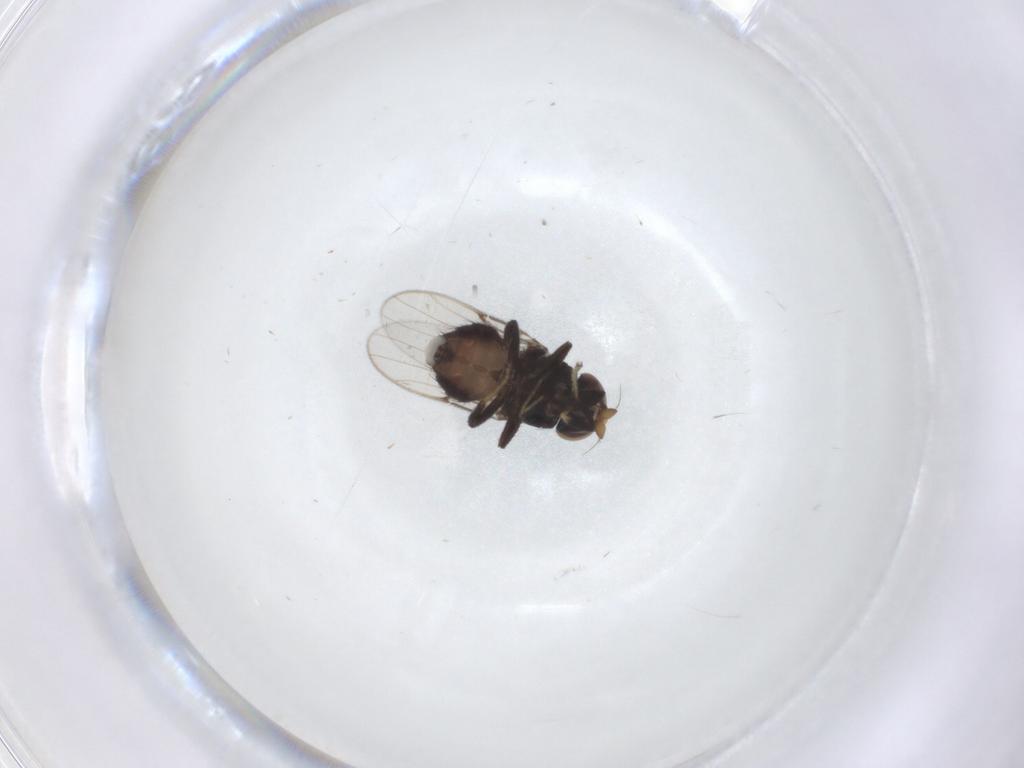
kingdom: Animalia
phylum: Arthropoda
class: Insecta
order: Diptera
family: Chloropidae
